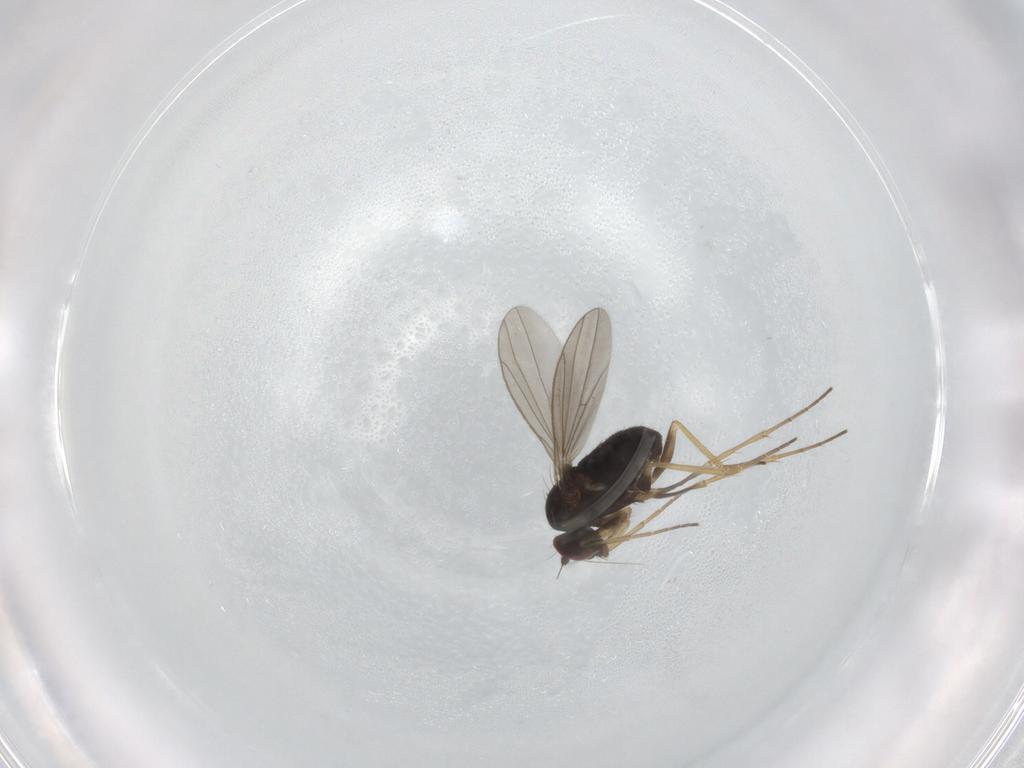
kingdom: Animalia
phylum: Arthropoda
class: Insecta
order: Diptera
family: Dolichopodidae
